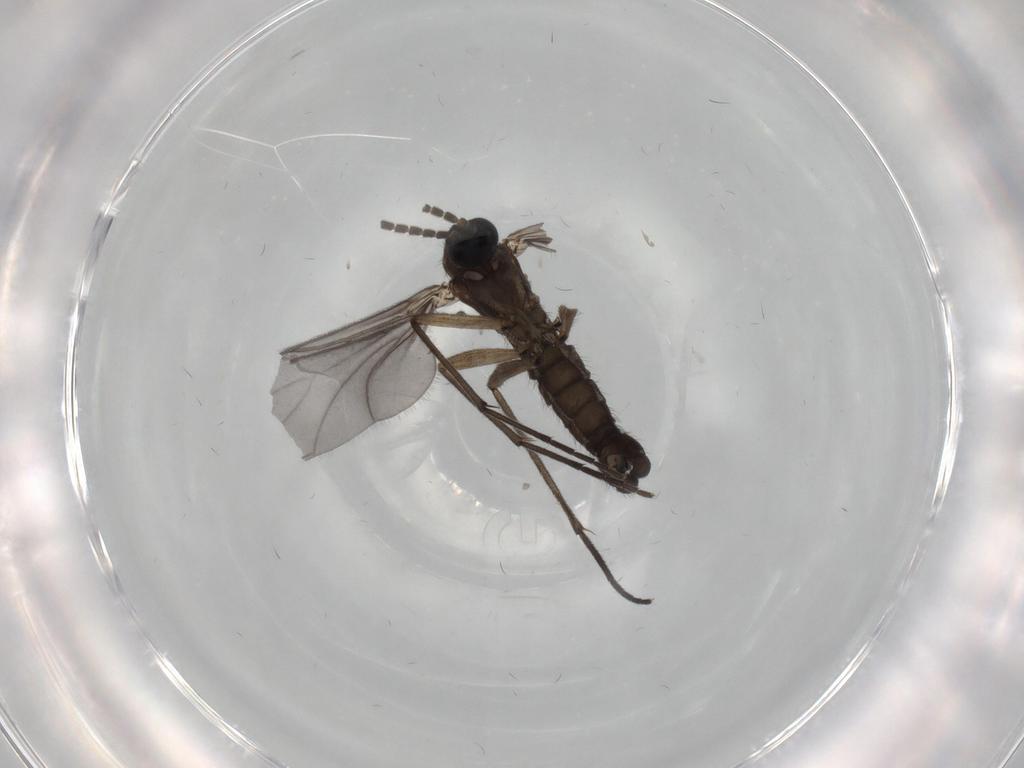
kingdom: Animalia
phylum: Arthropoda
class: Insecta
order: Diptera
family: Sciaridae
